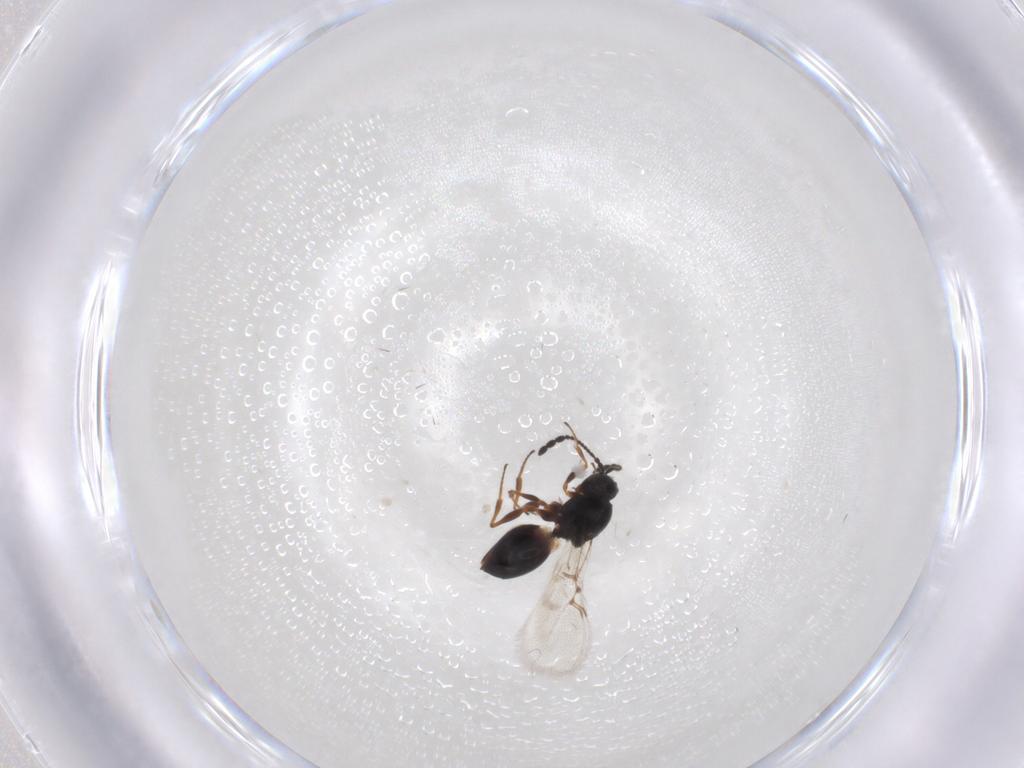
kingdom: Animalia
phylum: Arthropoda
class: Insecta
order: Hymenoptera
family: Figitidae
